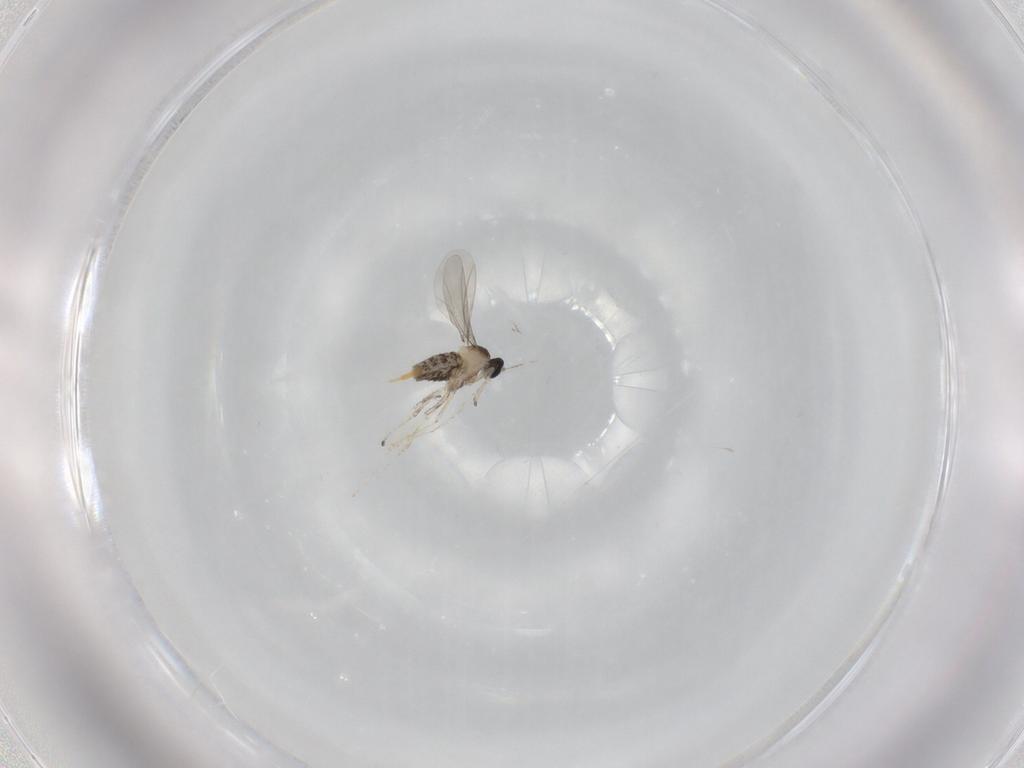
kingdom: Animalia
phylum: Arthropoda
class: Insecta
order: Diptera
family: Cecidomyiidae
